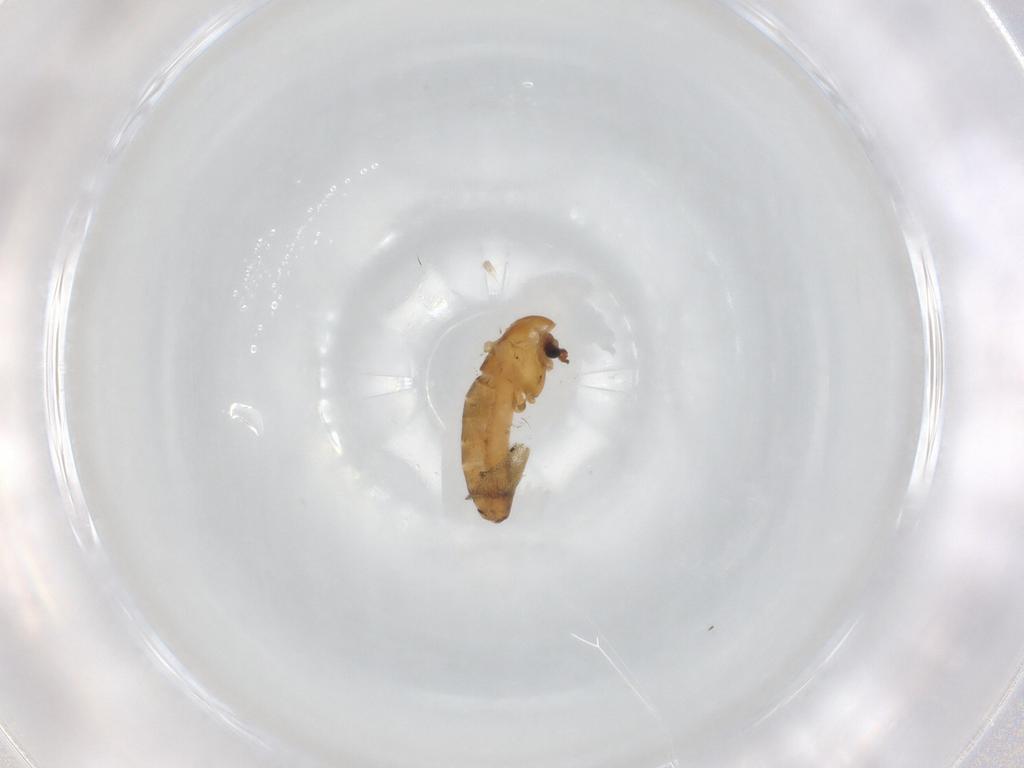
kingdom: Animalia
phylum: Arthropoda
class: Insecta
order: Diptera
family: Chironomidae
